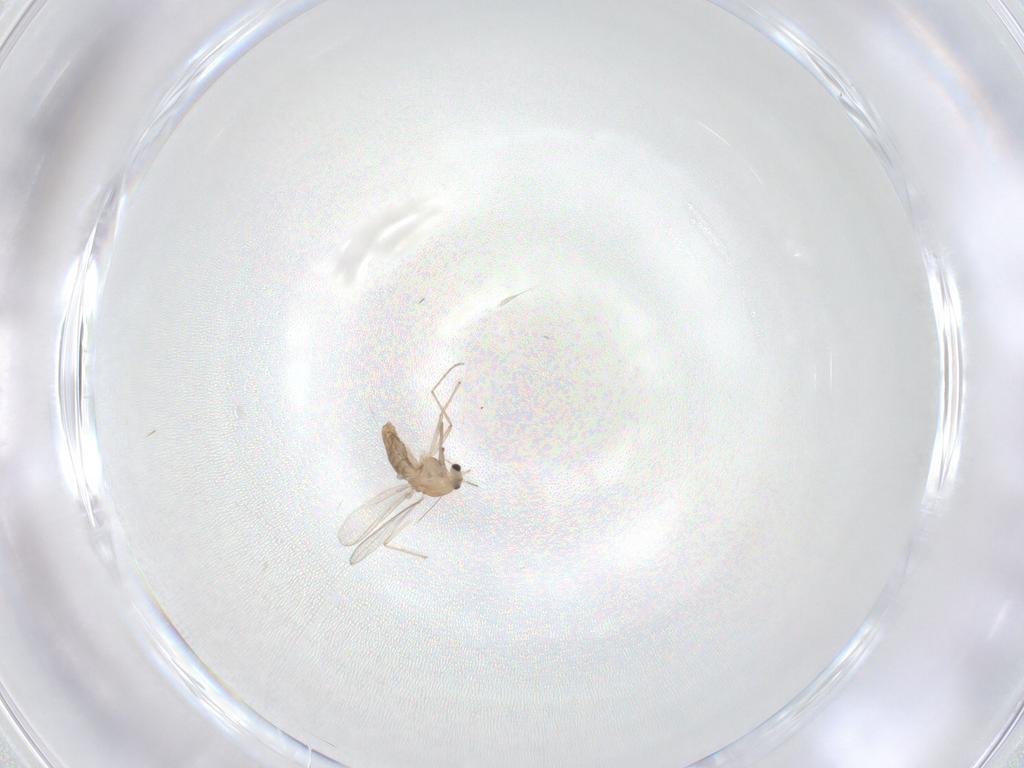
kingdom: Animalia
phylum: Arthropoda
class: Insecta
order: Diptera
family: Chironomidae
